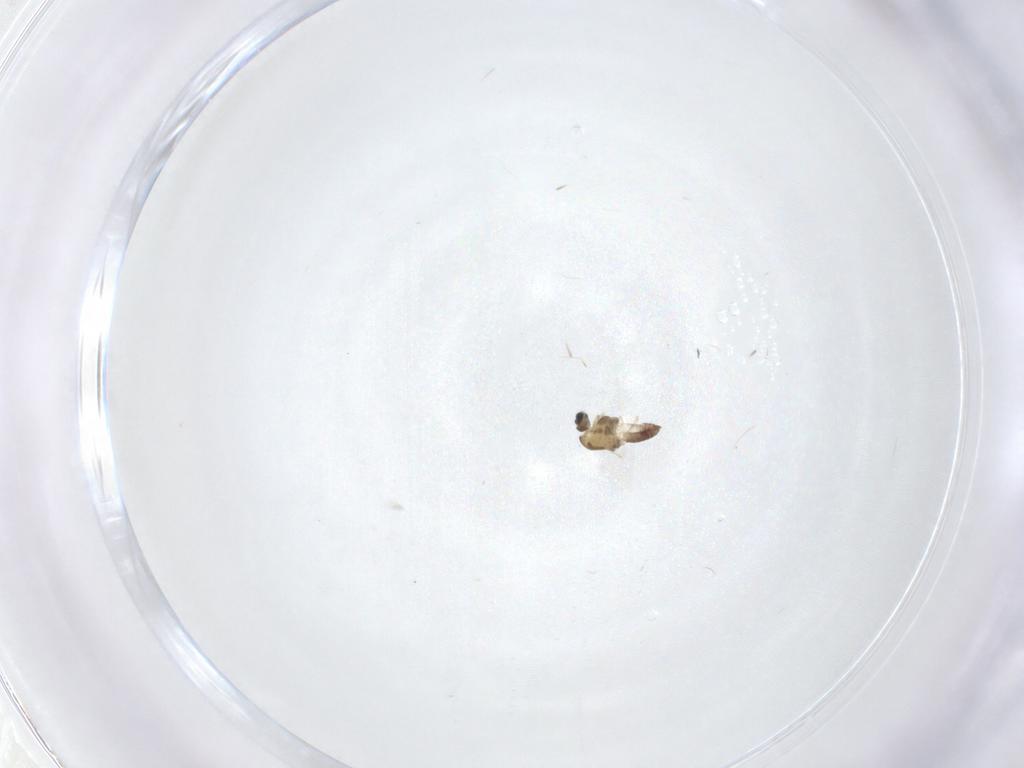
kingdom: Animalia
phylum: Arthropoda
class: Insecta
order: Diptera
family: Chironomidae
